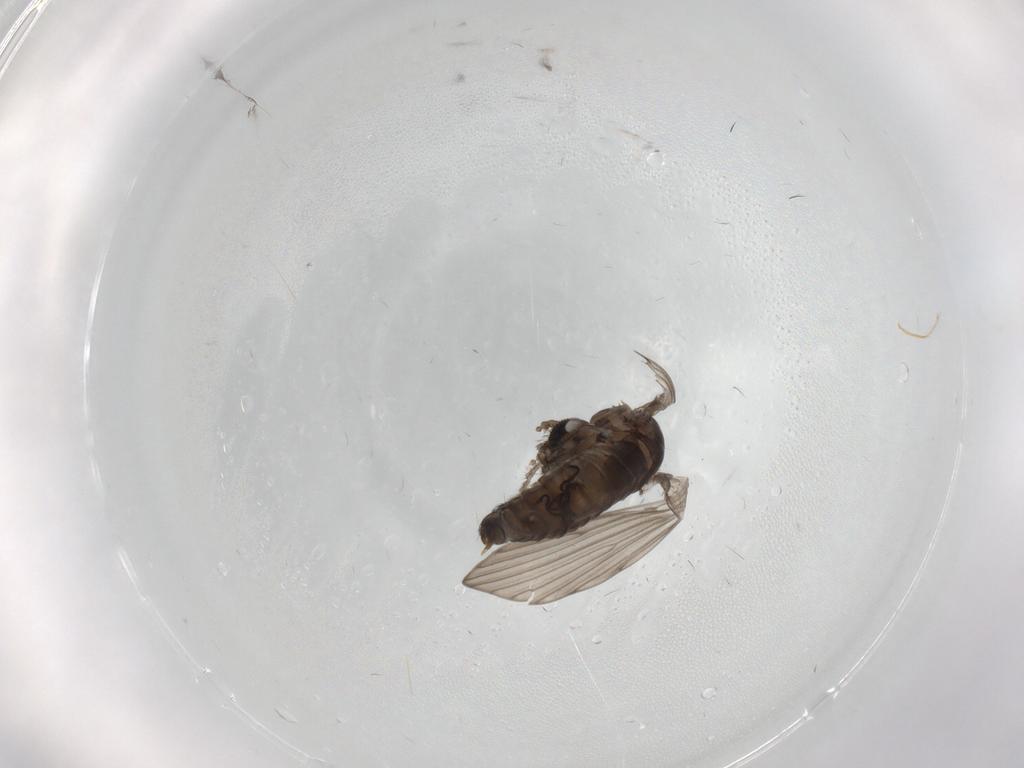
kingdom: Animalia
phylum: Arthropoda
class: Insecta
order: Diptera
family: Psychodidae
